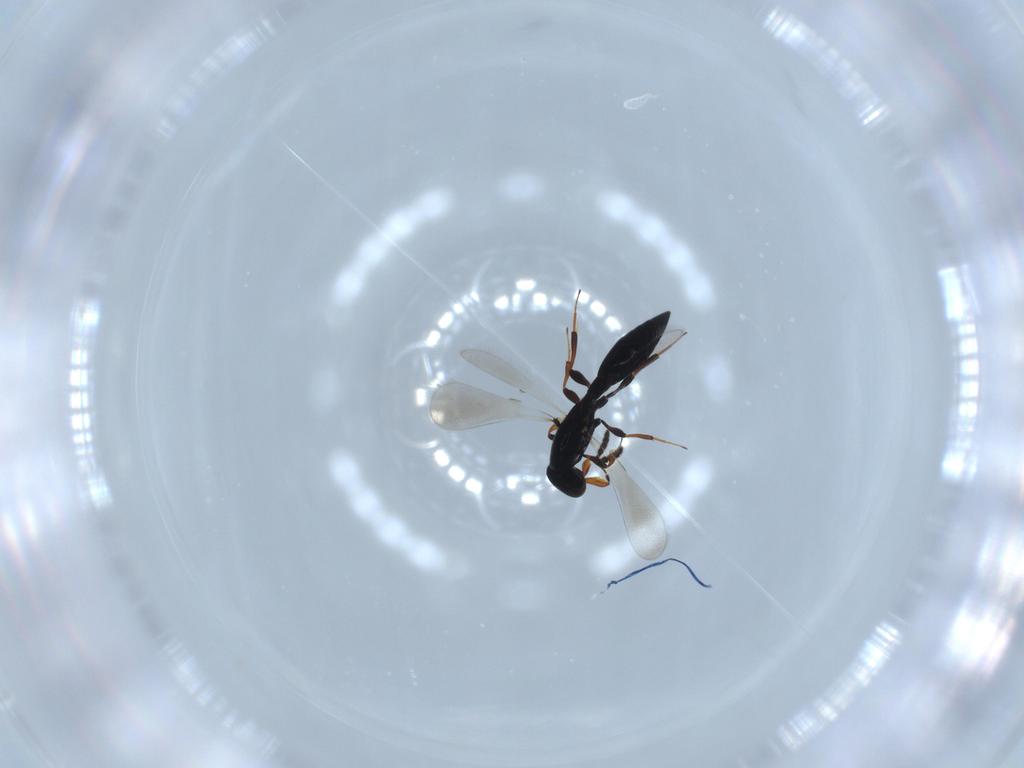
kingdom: Animalia
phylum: Arthropoda
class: Insecta
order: Hymenoptera
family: Platygastridae
